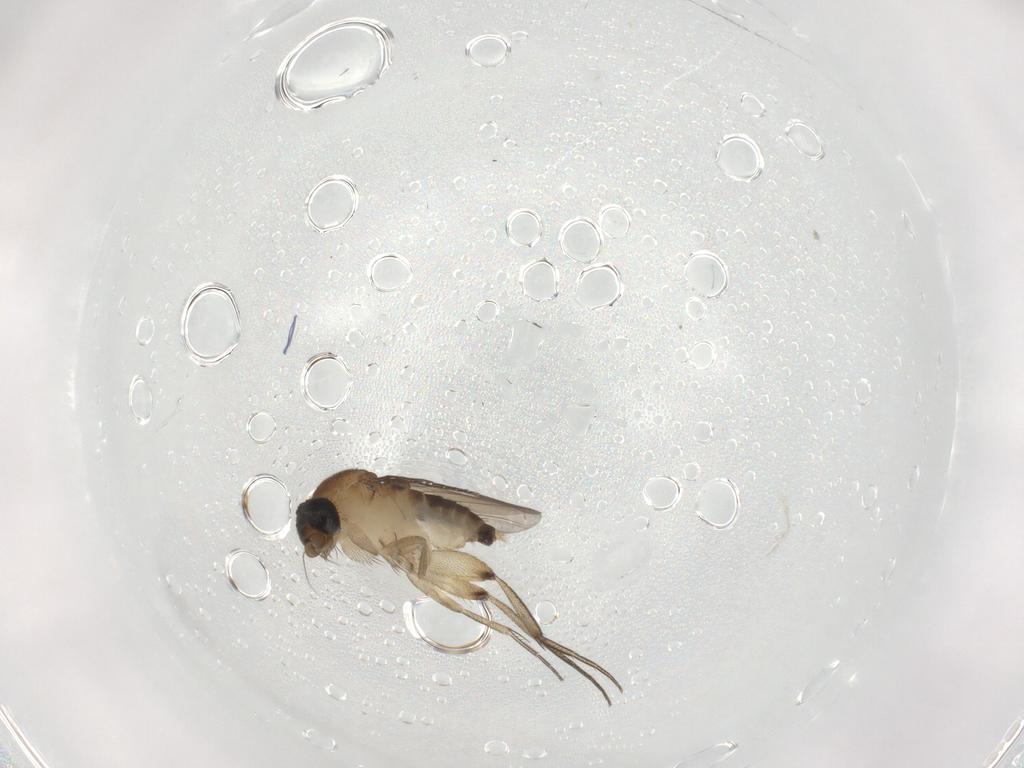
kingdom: Animalia
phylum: Arthropoda
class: Insecta
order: Diptera
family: Phoridae
